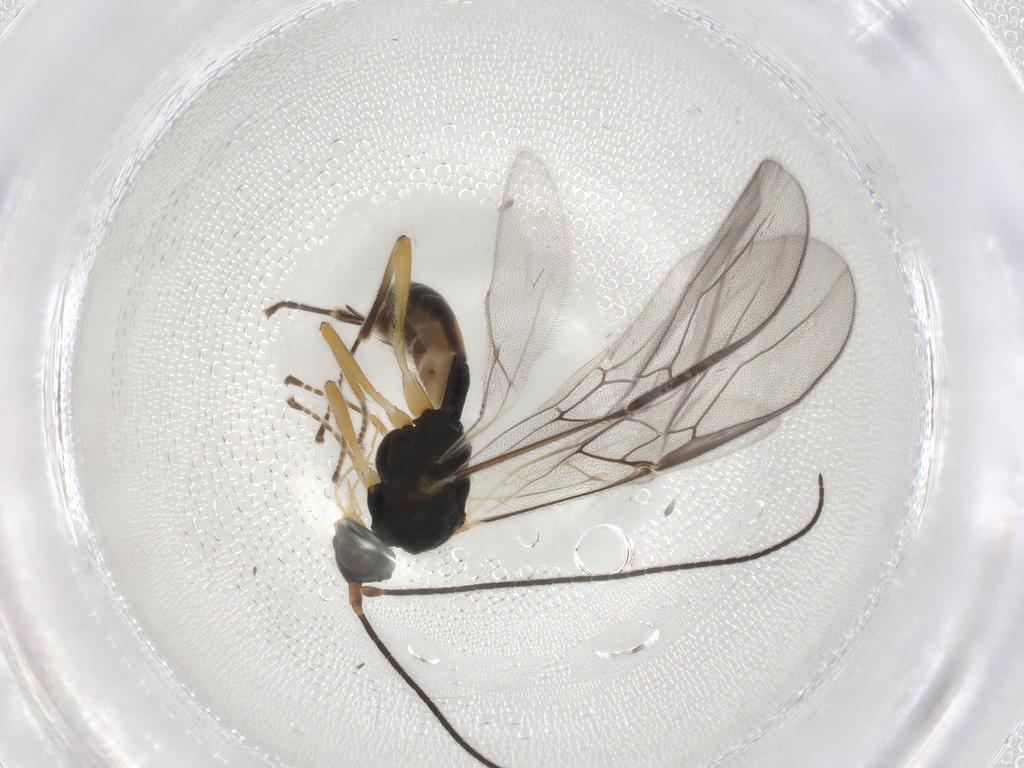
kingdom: Animalia
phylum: Arthropoda
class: Insecta
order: Hymenoptera
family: Braconidae
